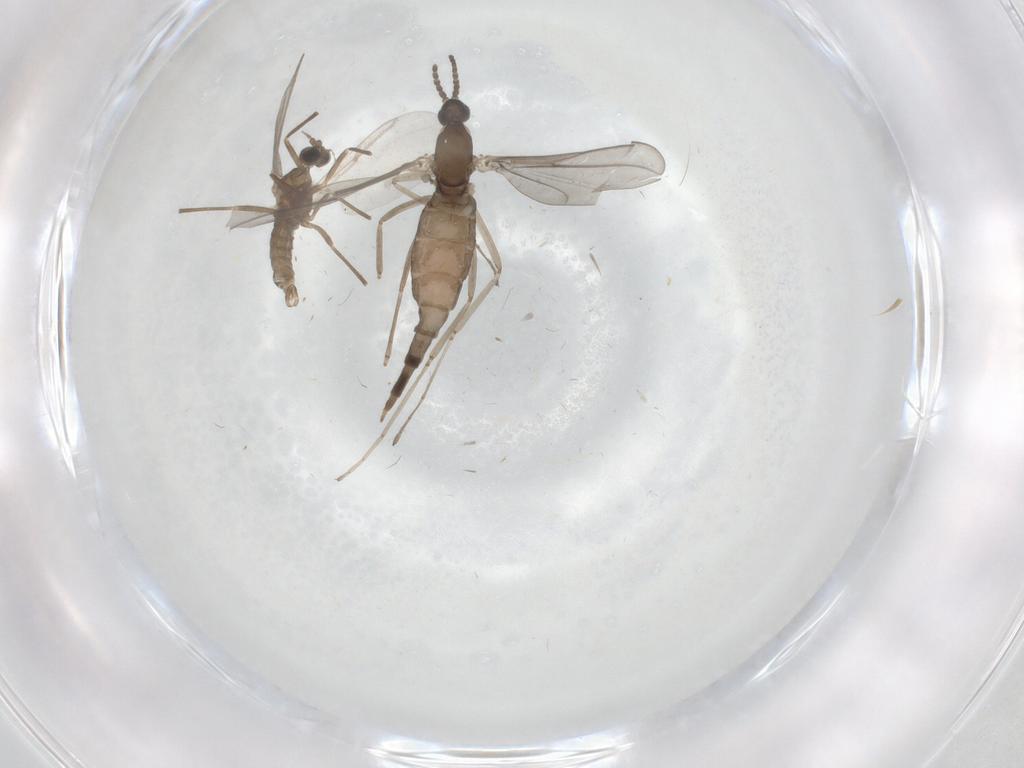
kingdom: Animalia
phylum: Arthropoda
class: Insecta
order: Diptera
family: Cecidomyiidae
